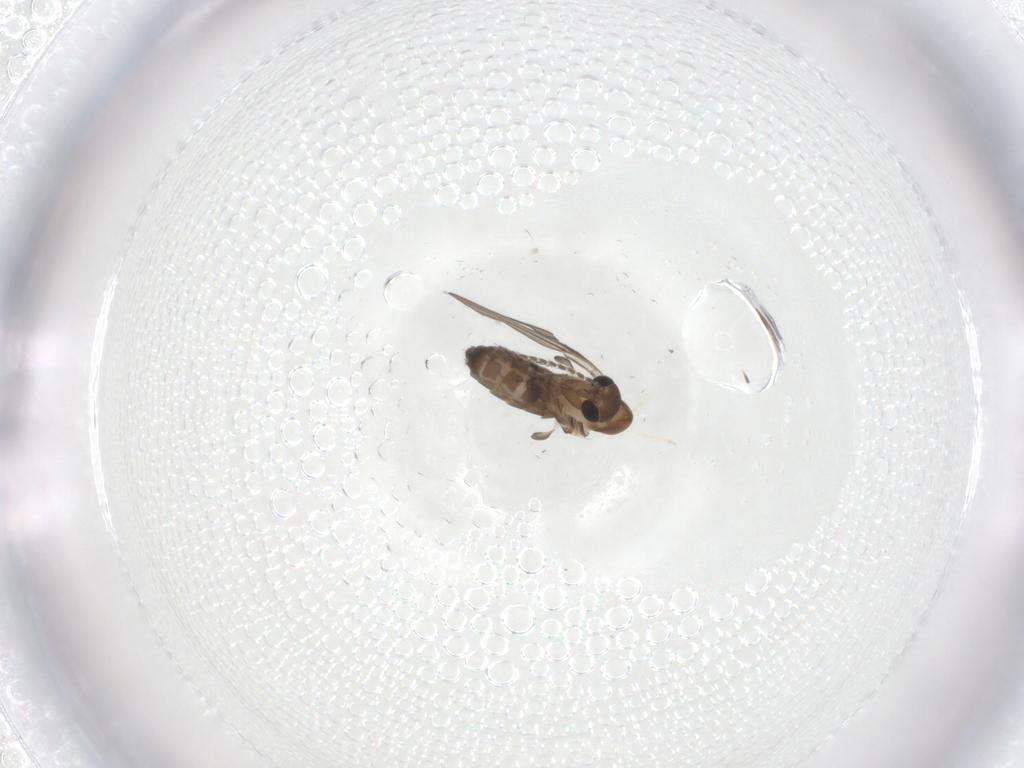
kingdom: Animalia
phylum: Arthropoda
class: Insecta
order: Diptera
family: Psychodidae
